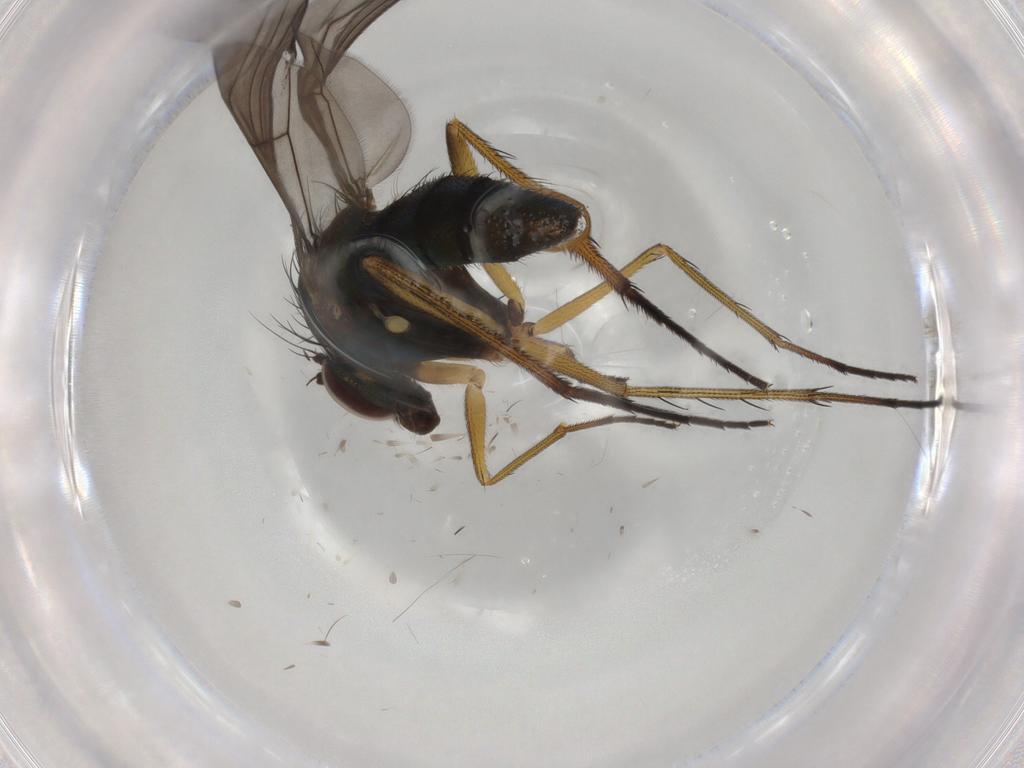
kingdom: Animalia
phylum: Arthropoda
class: Insecta
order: Diptera
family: Dolichopodidae
